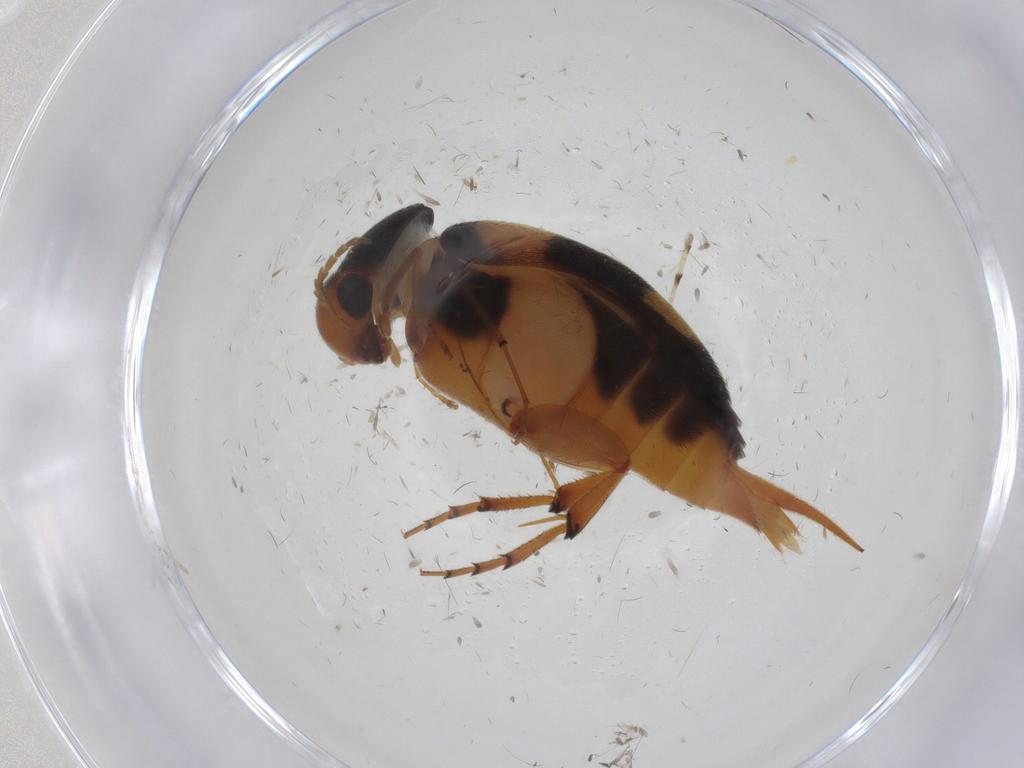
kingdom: Animalia
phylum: Arthropoda
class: Insecta
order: Coleoptera
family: Mordellidae
